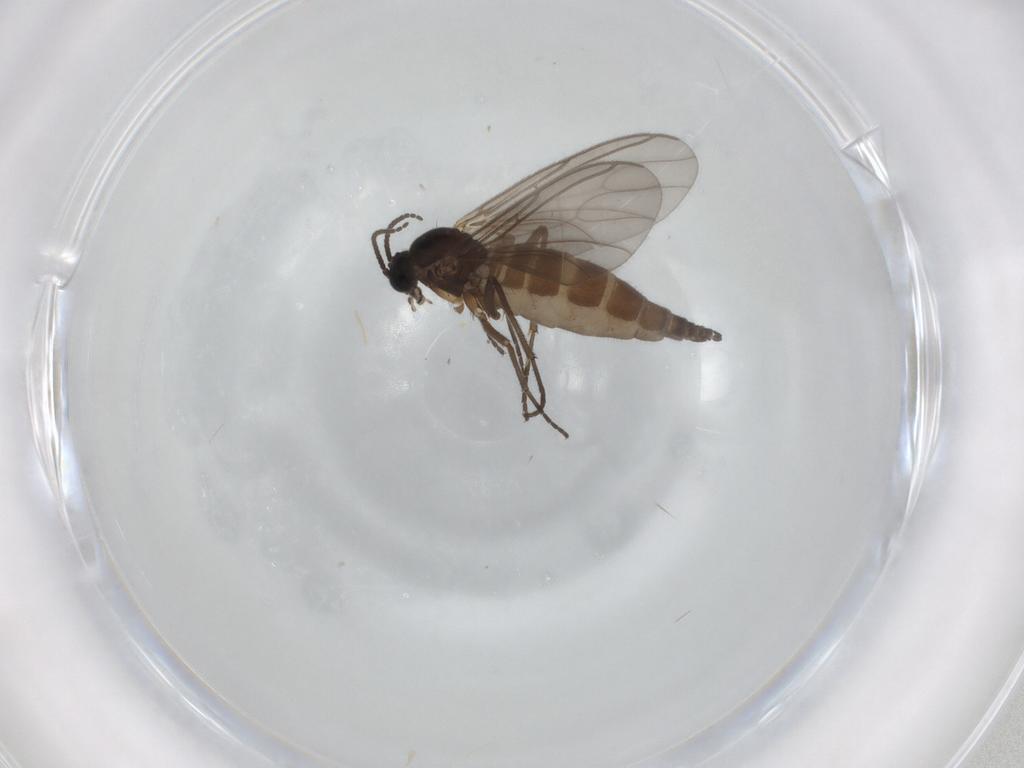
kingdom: Animalia
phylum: Arthropoda
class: Insecta
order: Diptera
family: Sciaridae
